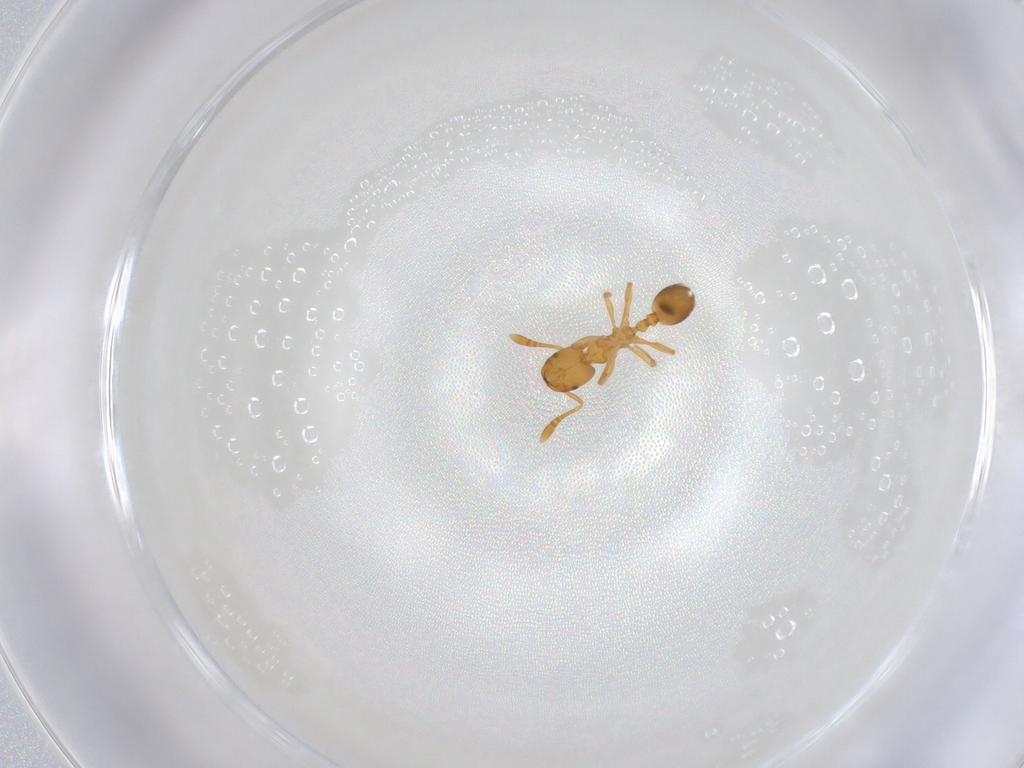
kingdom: Animalia
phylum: Arthropoda
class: Insecta
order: Hymenoptera
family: Formicidae
